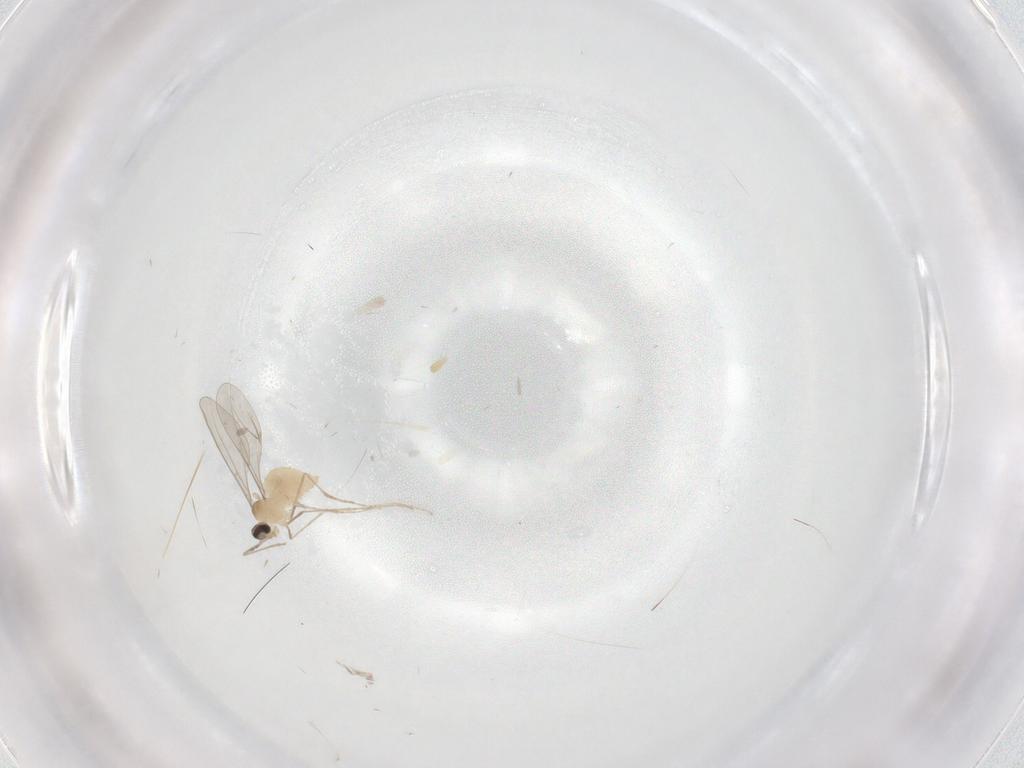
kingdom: Animalia
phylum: Arthropoda
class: Insecta
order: Diptera
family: Cecidomyiidae
